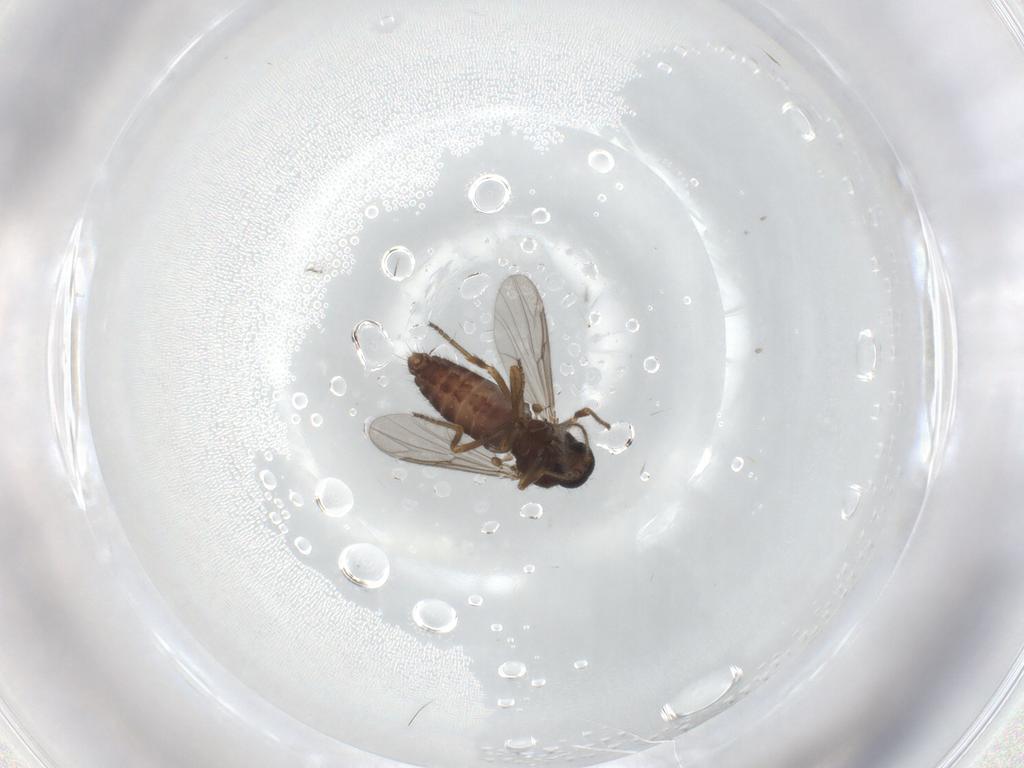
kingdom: Animalia
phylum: Arthropoda
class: Insecta
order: Diptera
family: Ceratopogonidae
